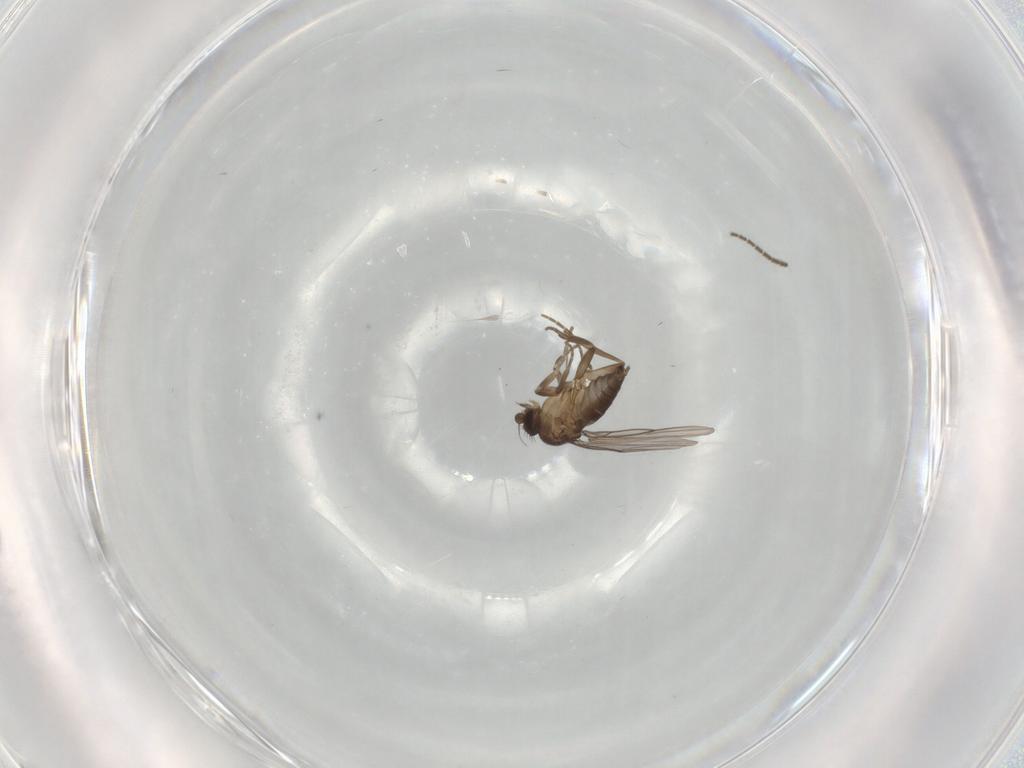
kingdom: Animalia
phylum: Arthropoda
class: Insecta
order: Diptera
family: Phoridae
